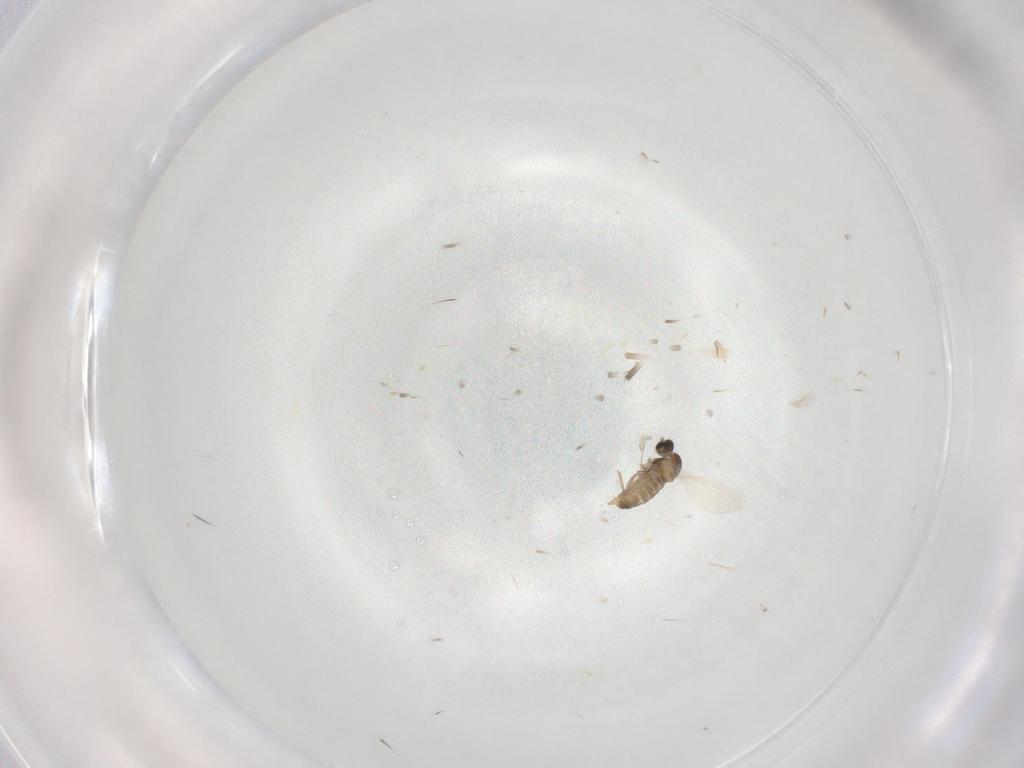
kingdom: Animalia
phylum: Arthropoda
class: Insecta
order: Diptera
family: Cecidomyiidae
